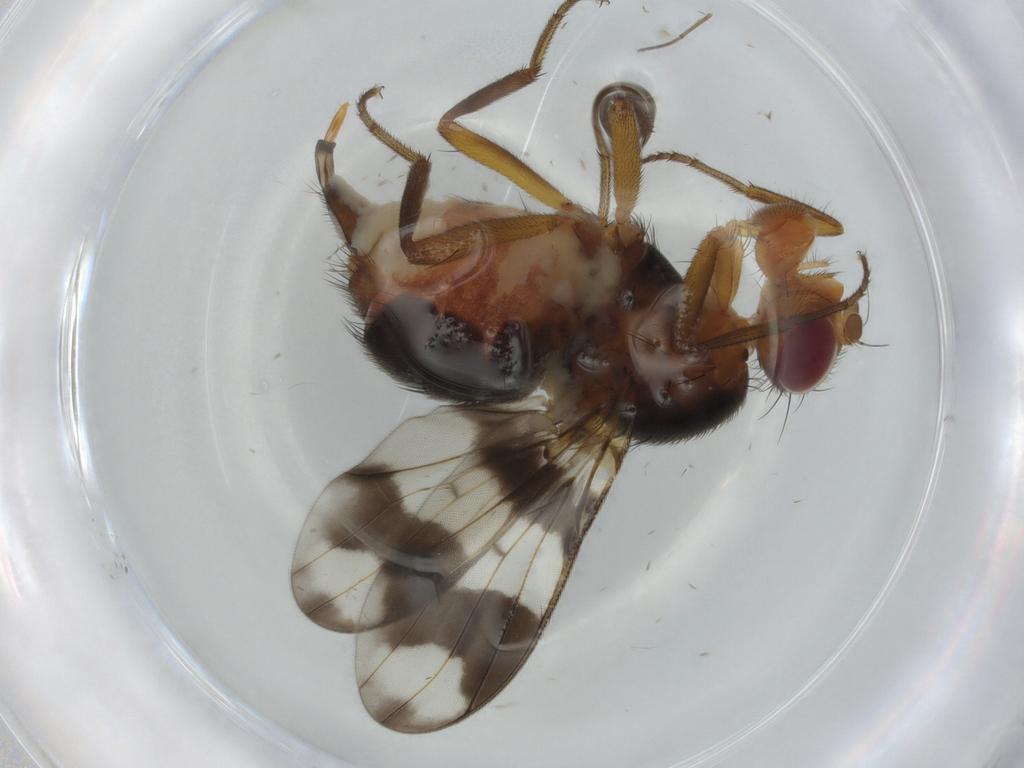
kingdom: Animalia
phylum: Arthropoda
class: Insecta
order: Diptera
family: Richardiidae
